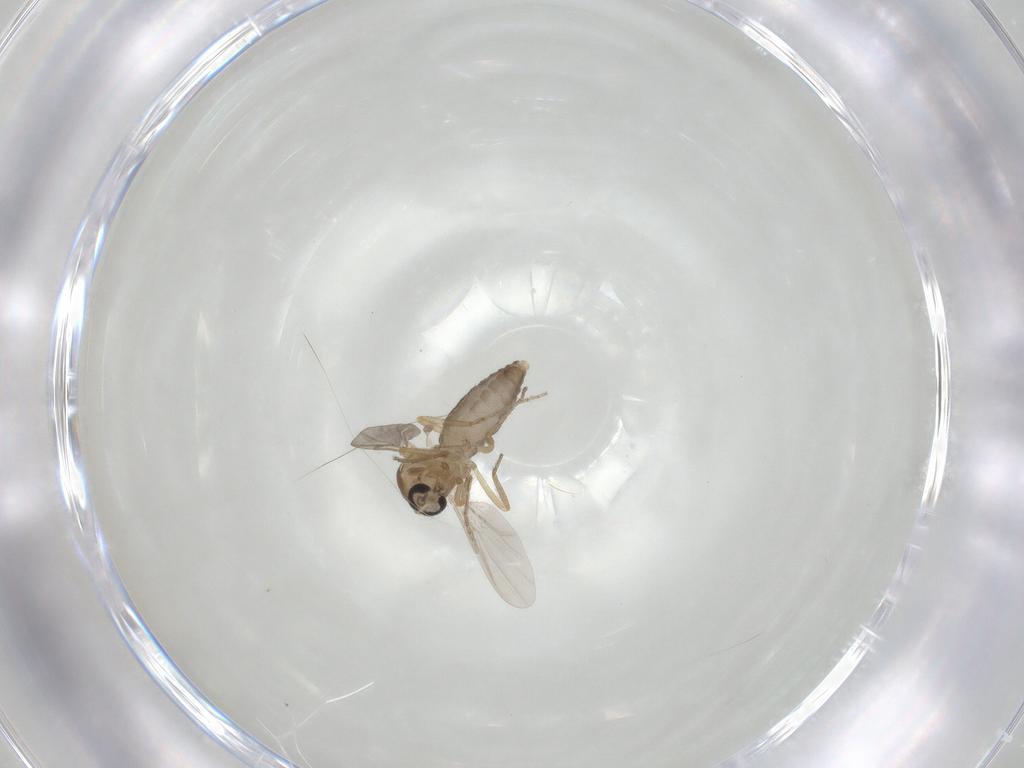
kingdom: Animalia
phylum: Arthropoda
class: Insecta
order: Diptera
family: Ceratopogonidae
